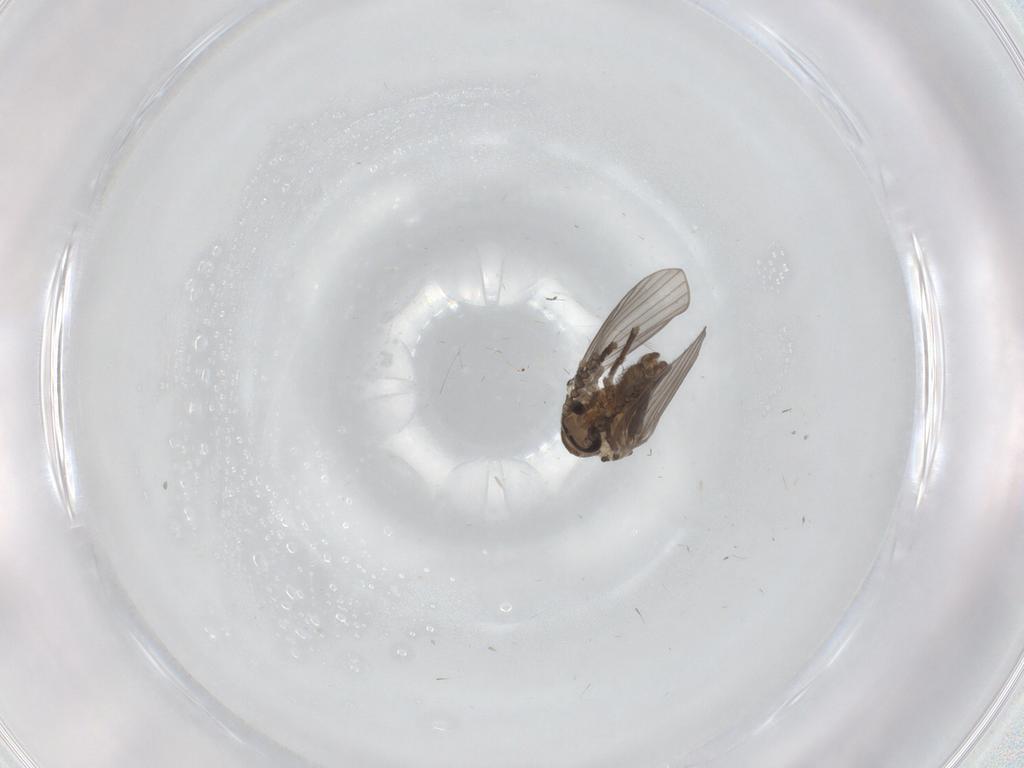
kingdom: Animalia
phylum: Arthropoda
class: Insecta
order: Diptera
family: Psychodidae
